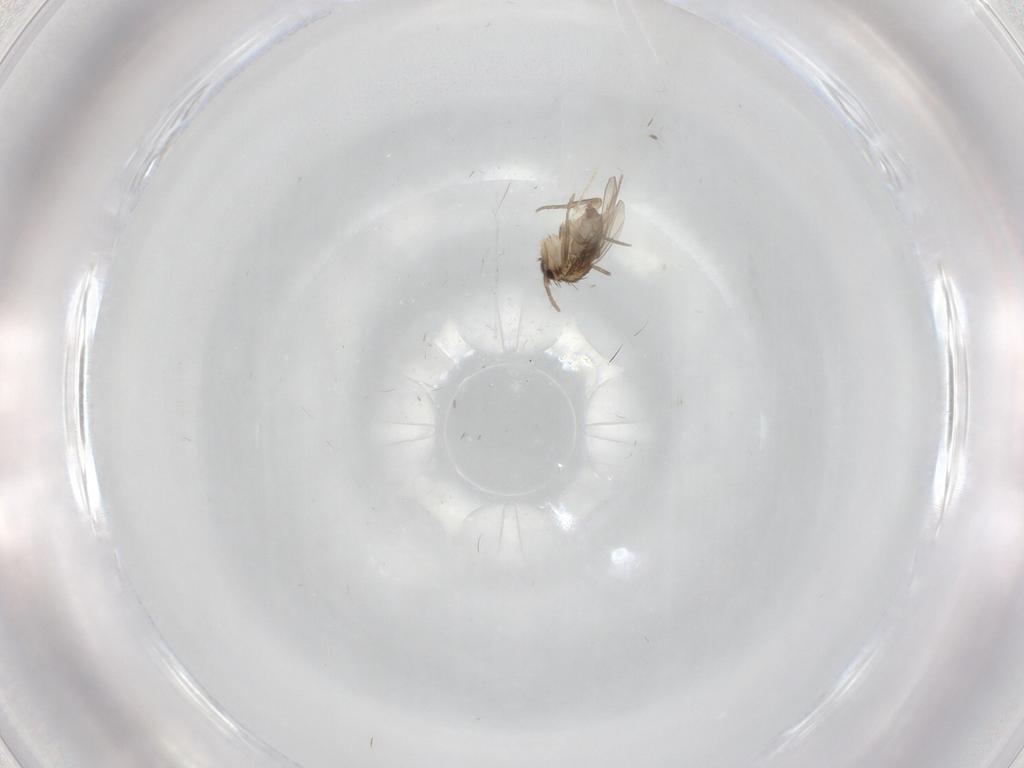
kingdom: Animalia
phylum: Arthropoda
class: Insecta
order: Diptera
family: Phoridae
